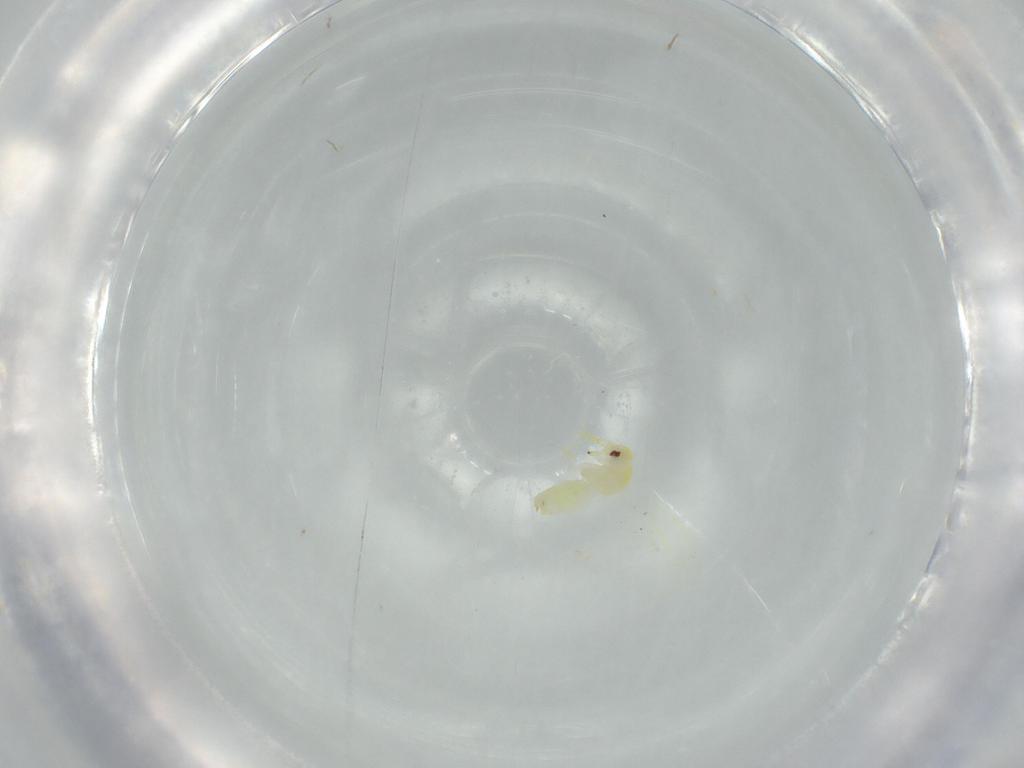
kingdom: Animalia
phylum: Arthropoda
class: Insecta
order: Hemiptera
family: Aleyrodidae
